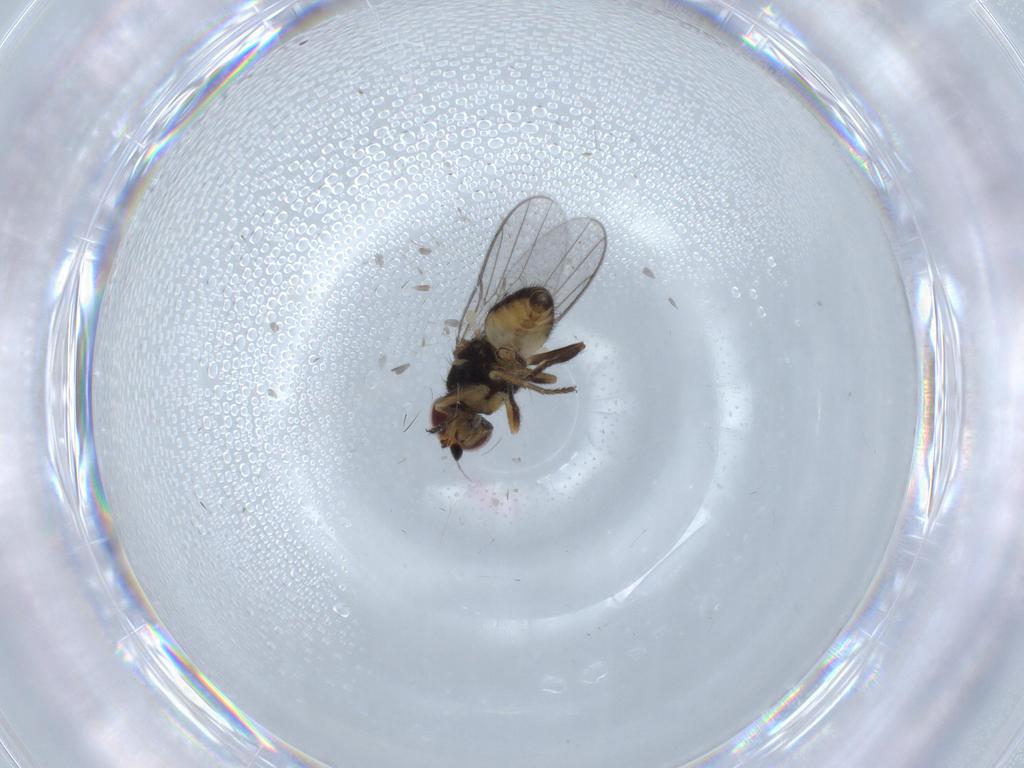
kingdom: Animalia
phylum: Arthropoda
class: Insecta
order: Diptera
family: Chloropidae
